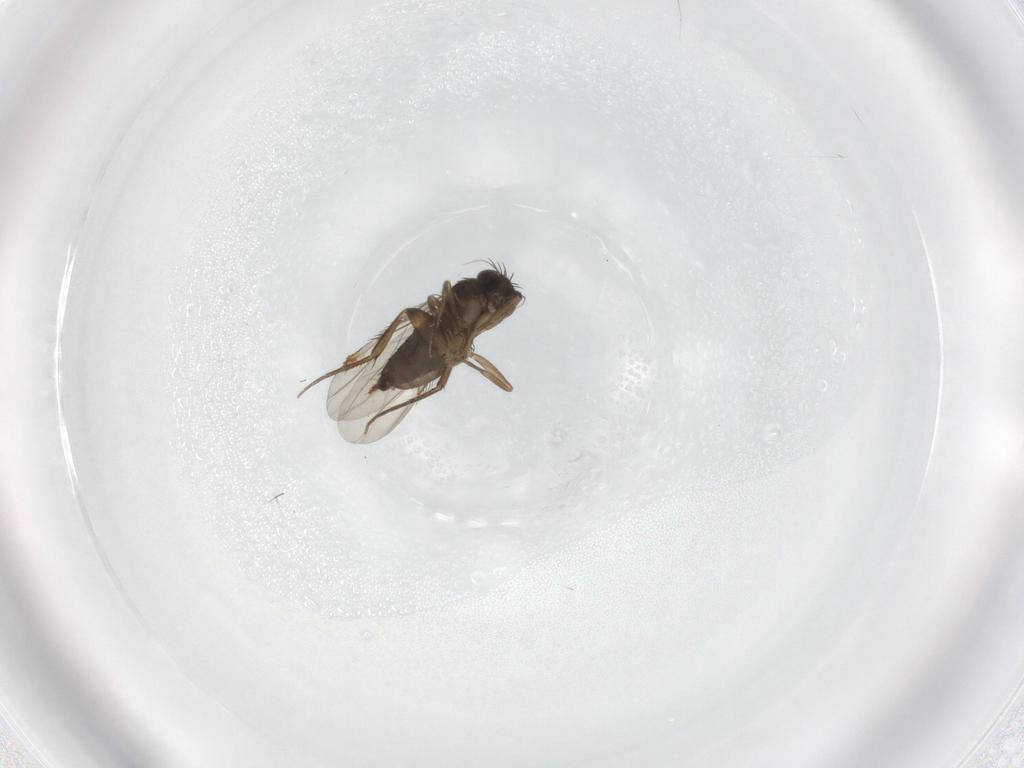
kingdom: Animalia
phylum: Arthropoda
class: Insecta
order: Diptera
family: Phoridae
